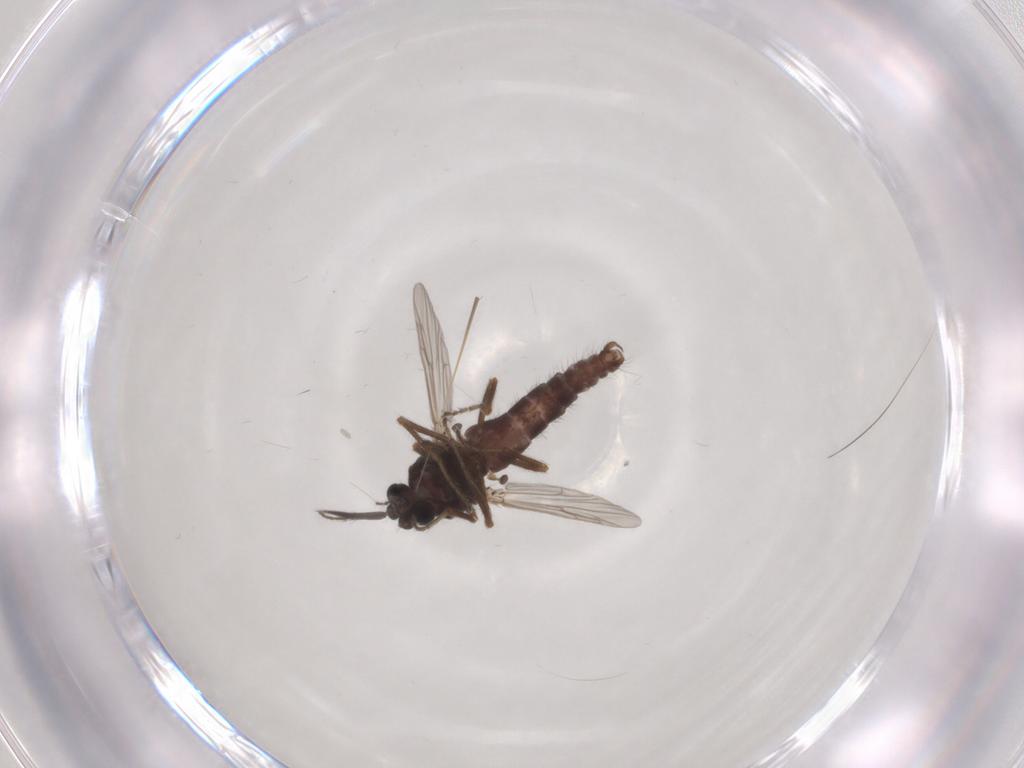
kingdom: Animalia
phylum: Arthropoda
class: Insecta
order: Diptera
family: Ceratopogonidae
